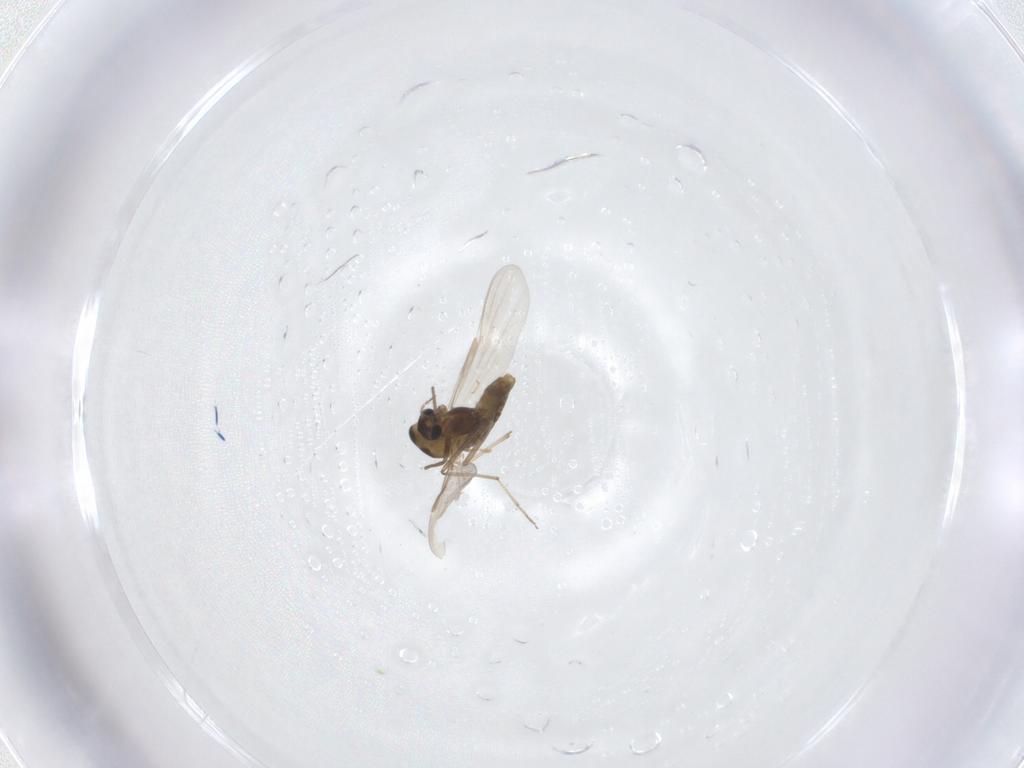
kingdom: Animalia
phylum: Arthropoda
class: Insecta
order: Diptera
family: Chironomidae
